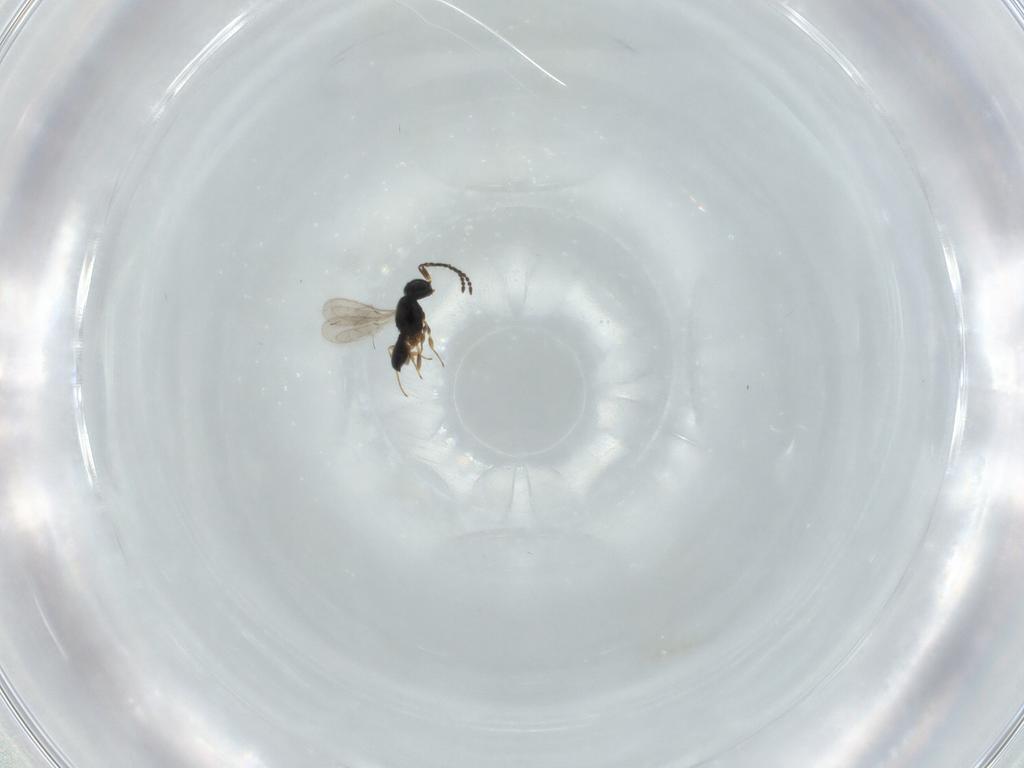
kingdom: Animalia
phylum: Arthropoda
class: Insecta
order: Hymenoptera
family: Scelionidae
